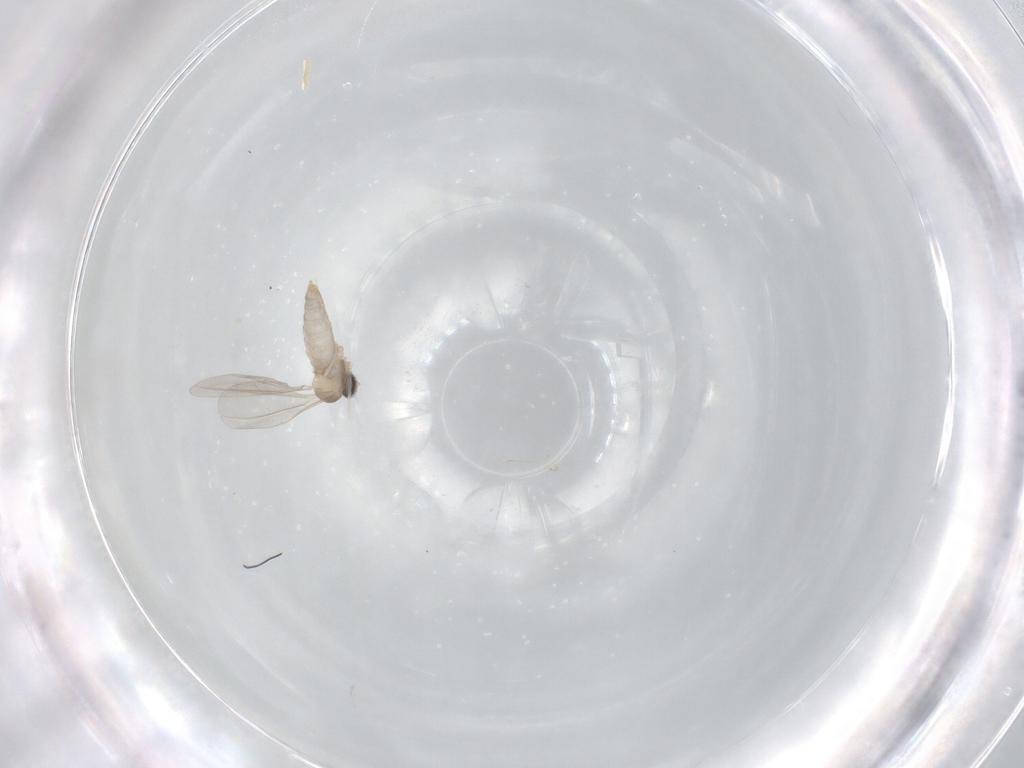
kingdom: Animalia
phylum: Arthropoda
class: Insecta
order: Diptera
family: Cecidomyiidae
